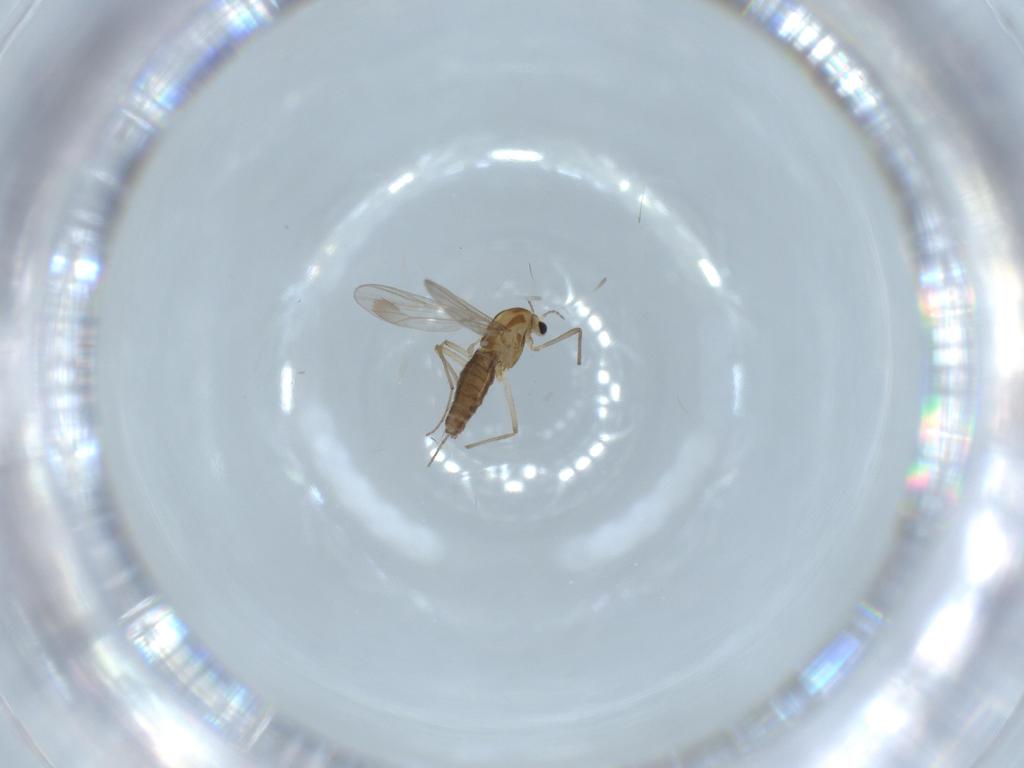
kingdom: Animalia
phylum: Arthropoda
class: Insecta
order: Diptera
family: Chironomidae
